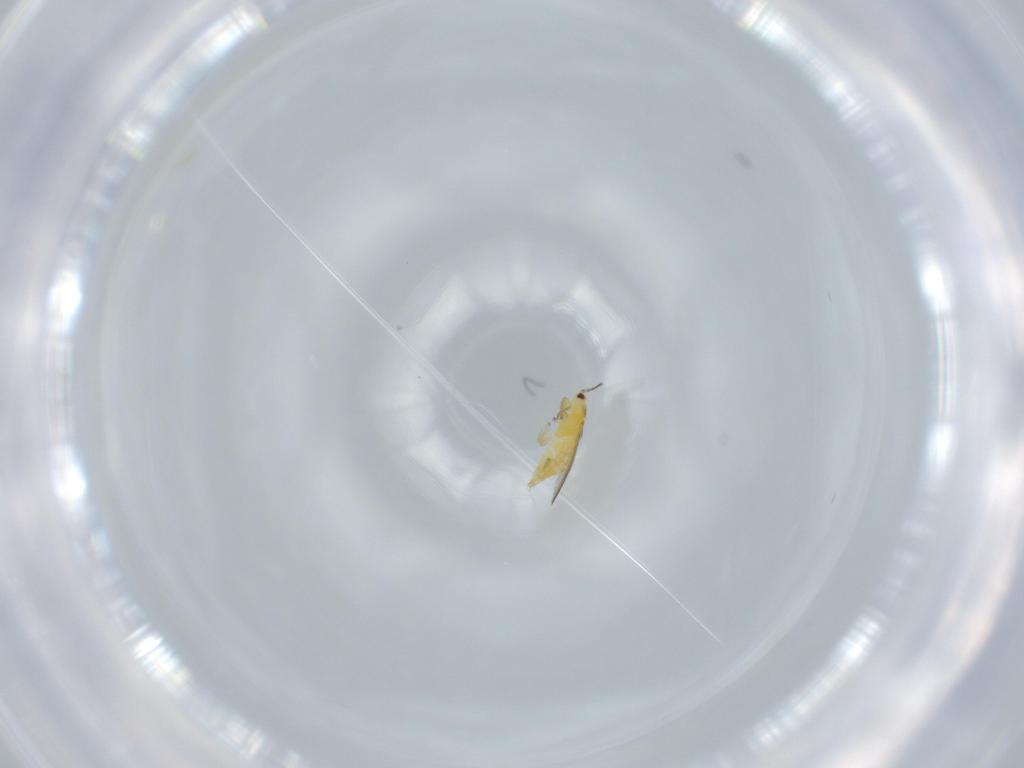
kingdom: Animalia
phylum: Arthropoda
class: Insecta
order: Thysanoptera
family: Thripidae
